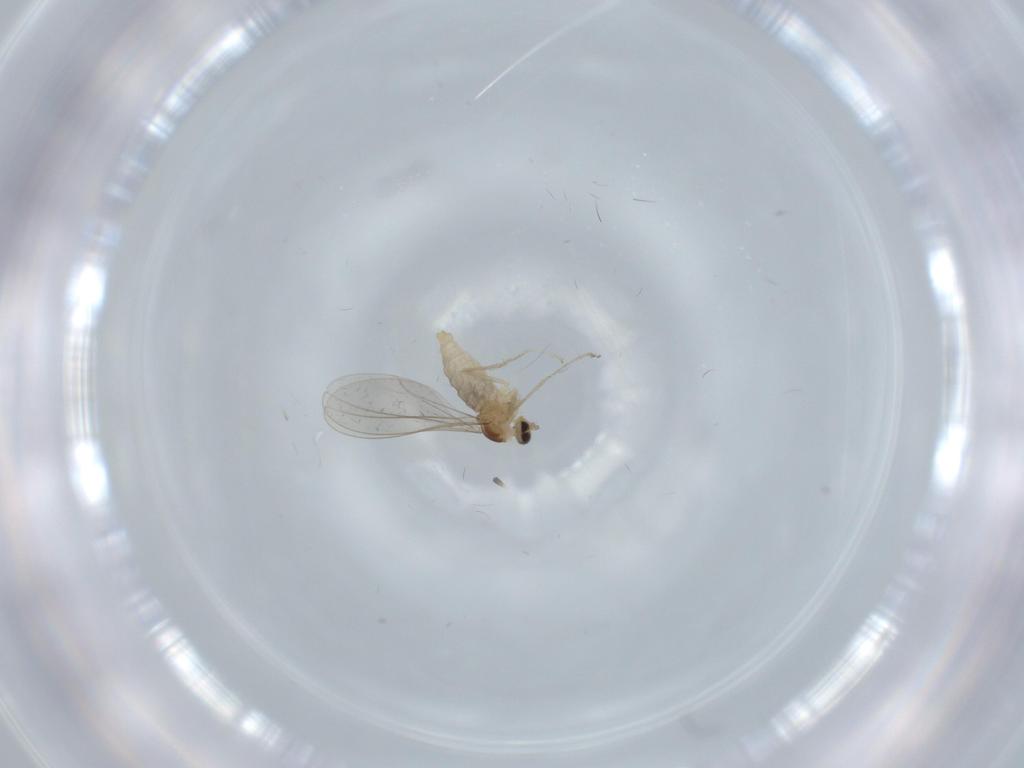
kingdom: Animalia
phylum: Arthropoda
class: Insecta
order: Diptera
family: Cecidomyiidae
